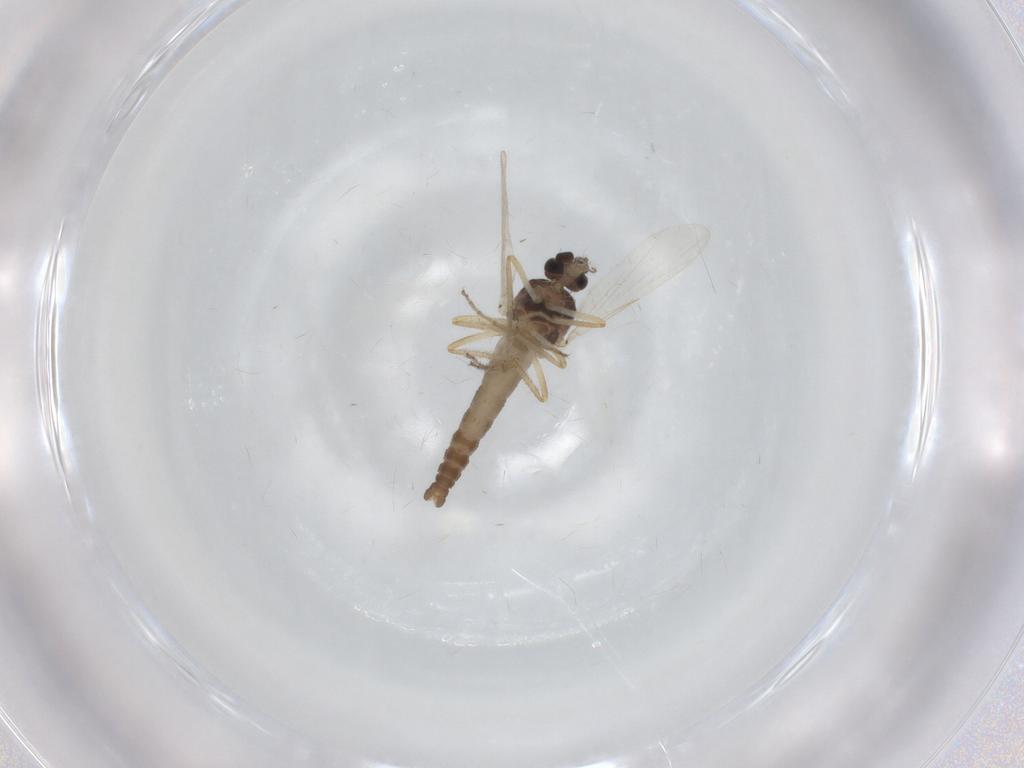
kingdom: Animalia
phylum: Arthropoda
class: Insecta
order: Diptera
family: Ceratopogonidae
